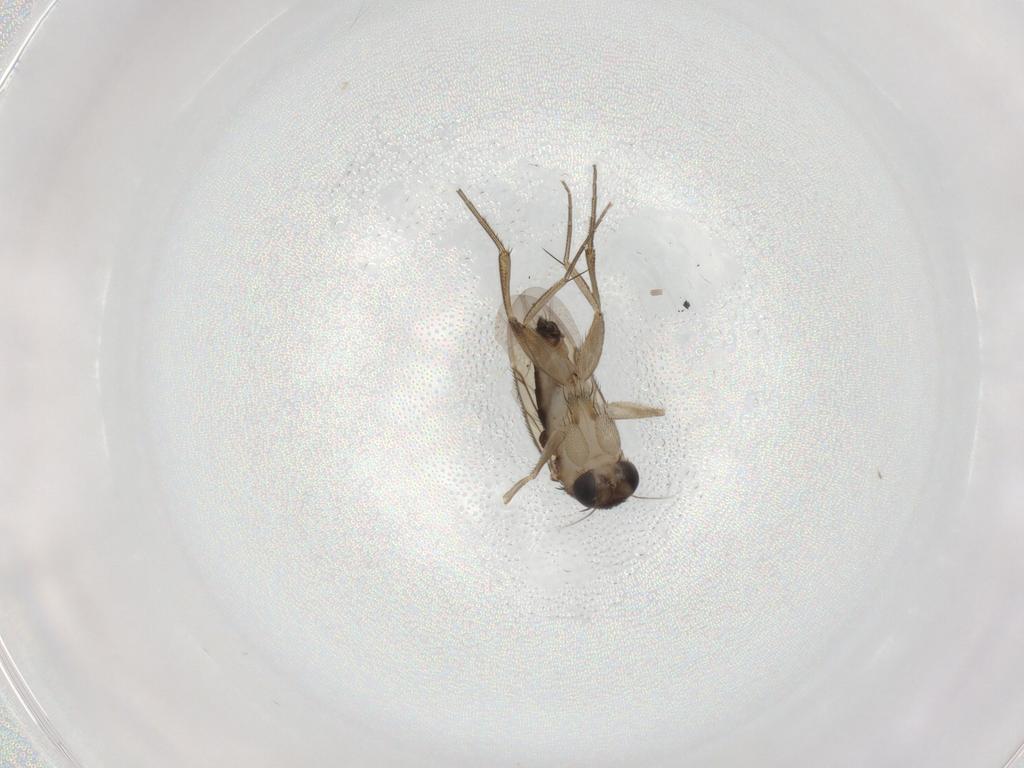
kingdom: Animalia
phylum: Arthropoda
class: Insecta
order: Diptera
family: Phoridae
